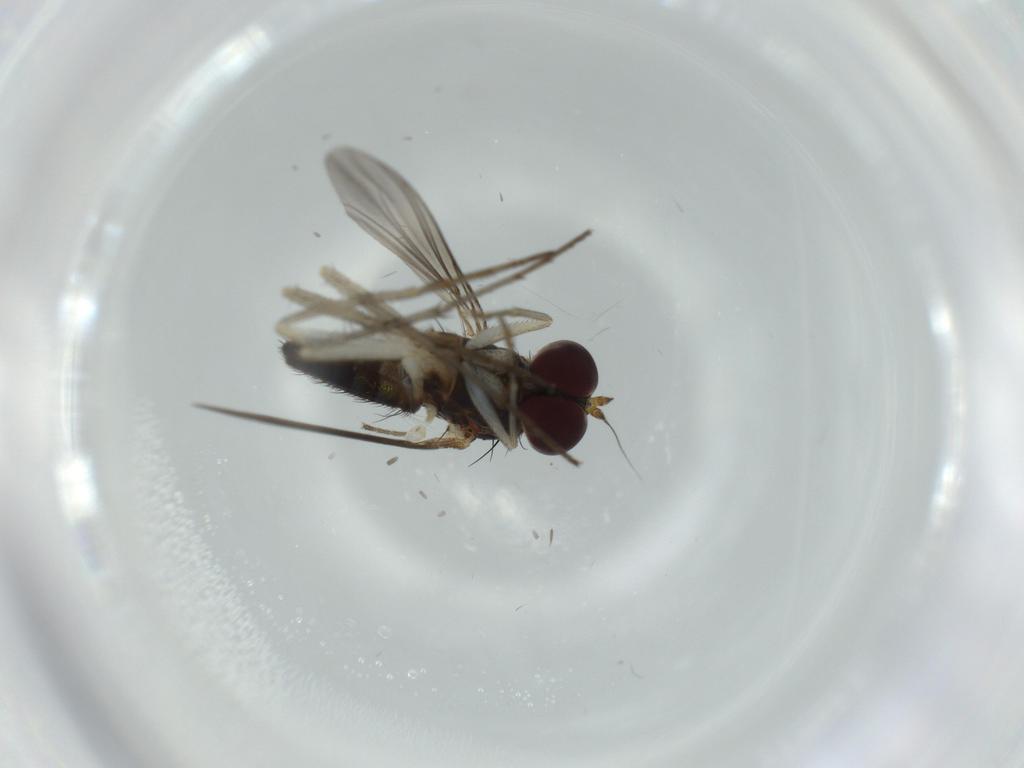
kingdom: Animalia
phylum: Arthropoda
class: Insecta
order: Diptera
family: Dolichopodidae
